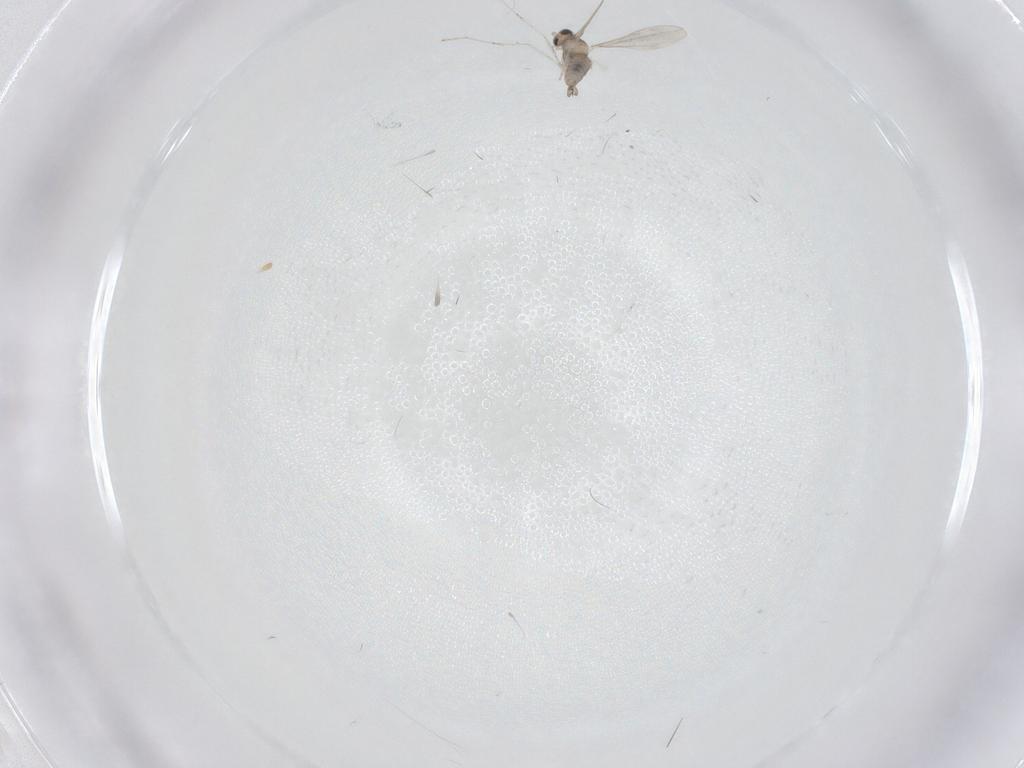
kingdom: Animalia
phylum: Arthropoda
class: Insecta
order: Diptera
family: Cecidomyiidae
